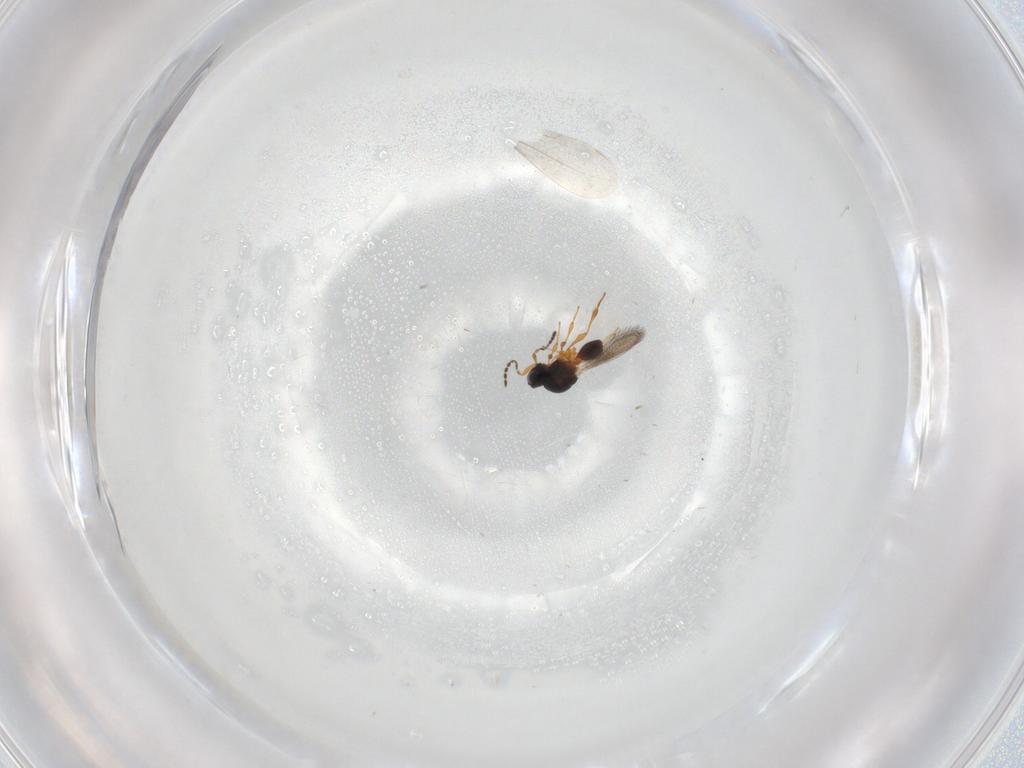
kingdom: Animalia
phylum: Arthropoda
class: Insecta
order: Hymenoptera
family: Platygastridae
